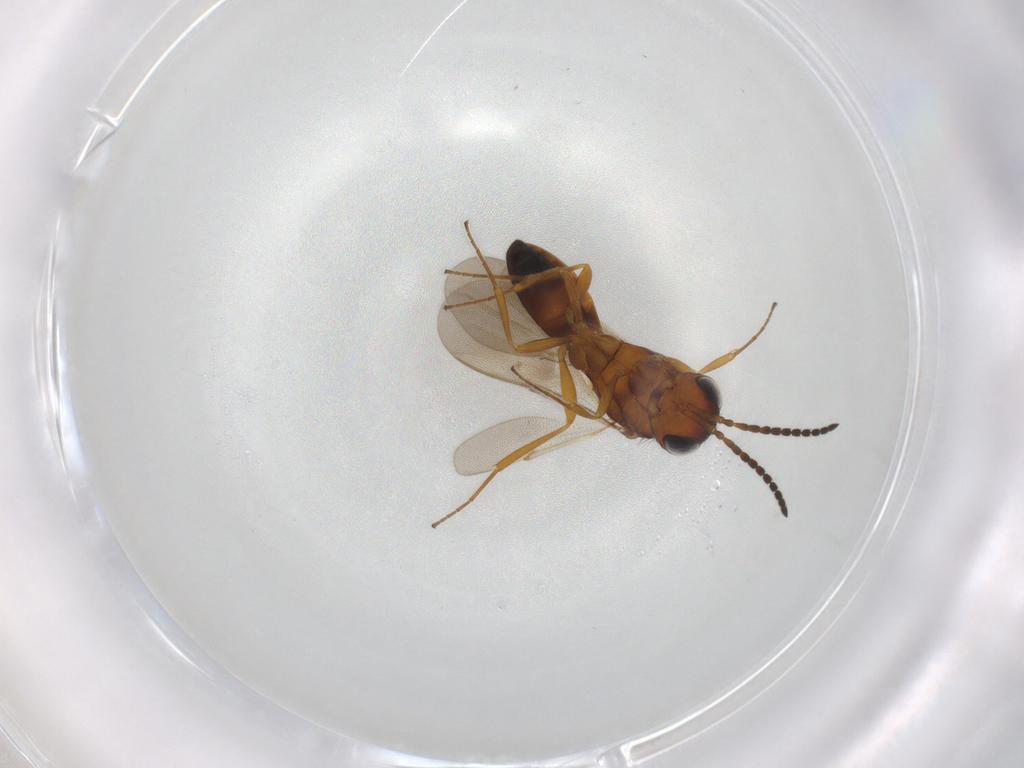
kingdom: Animalia
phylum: Arthropoda
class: Insecta
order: Hymenoptera
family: Scelionidae
